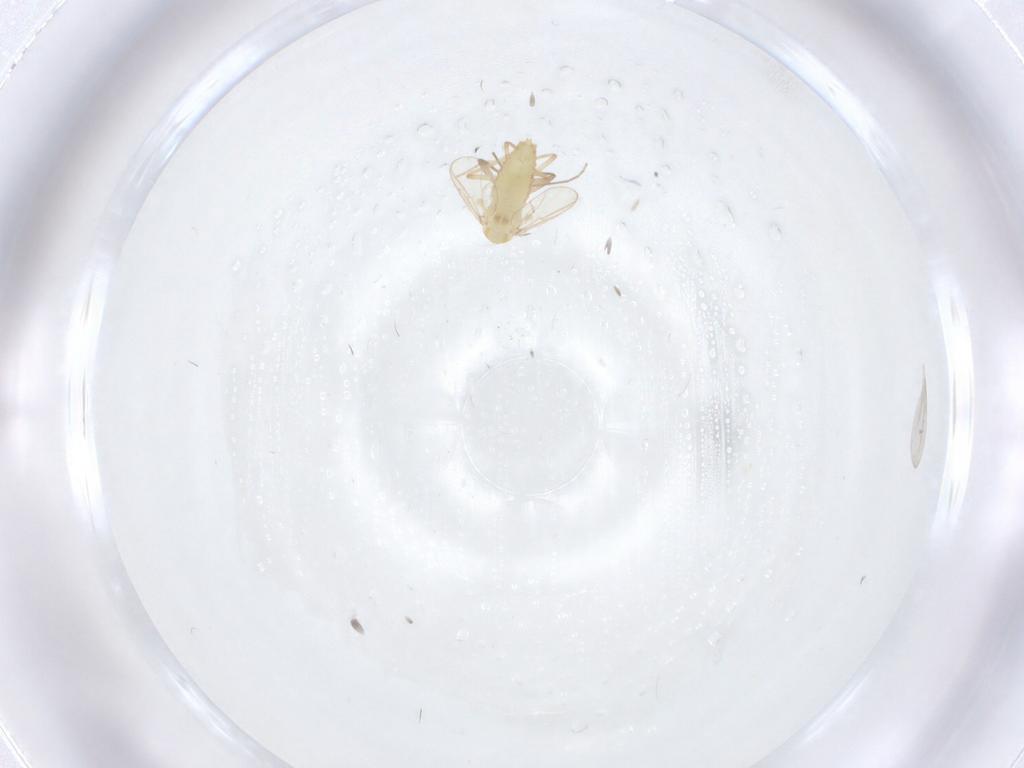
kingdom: Animalia
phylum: Arthropoda
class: Insecta
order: Diptera
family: Chironomidae
